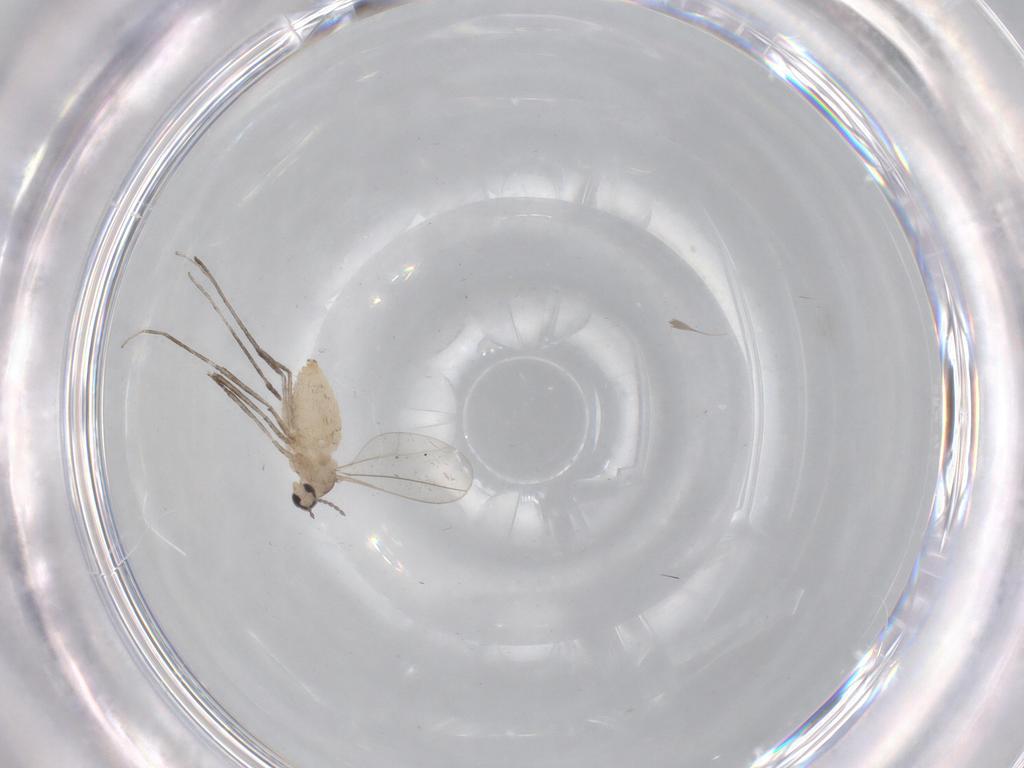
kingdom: Animalia
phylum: Arthropoda
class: Insecta
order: Diptera
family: Cecidomyiidae
